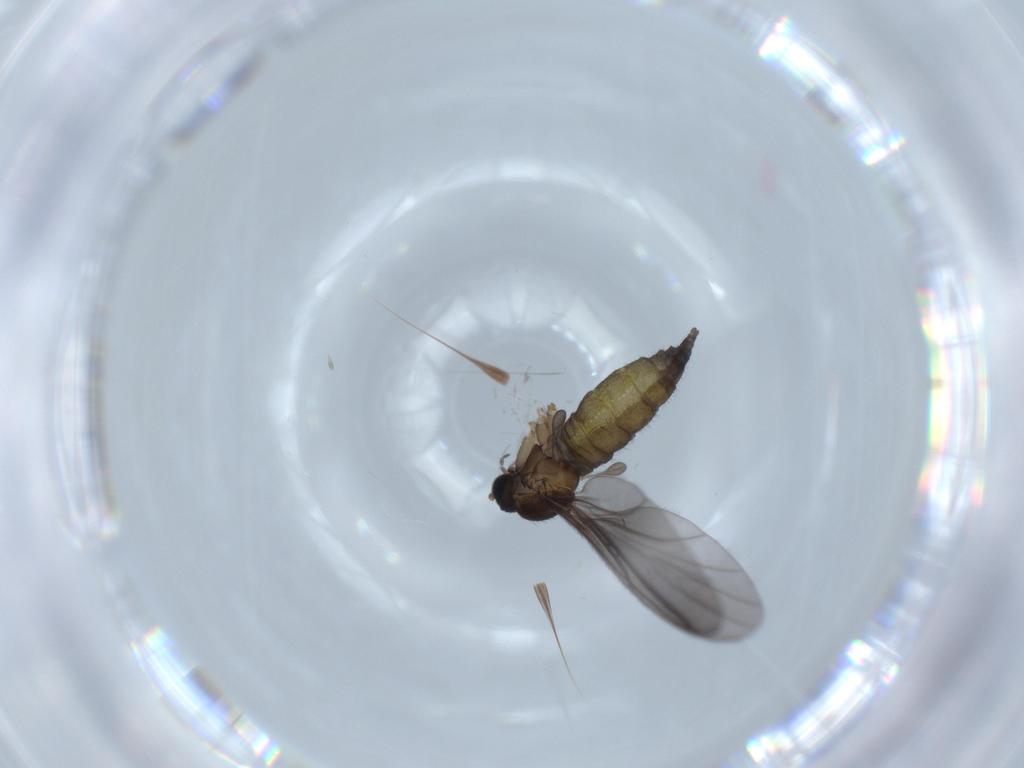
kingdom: Animalia
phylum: Arthropoda
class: Insecta
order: Diptera
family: Sciaridae
